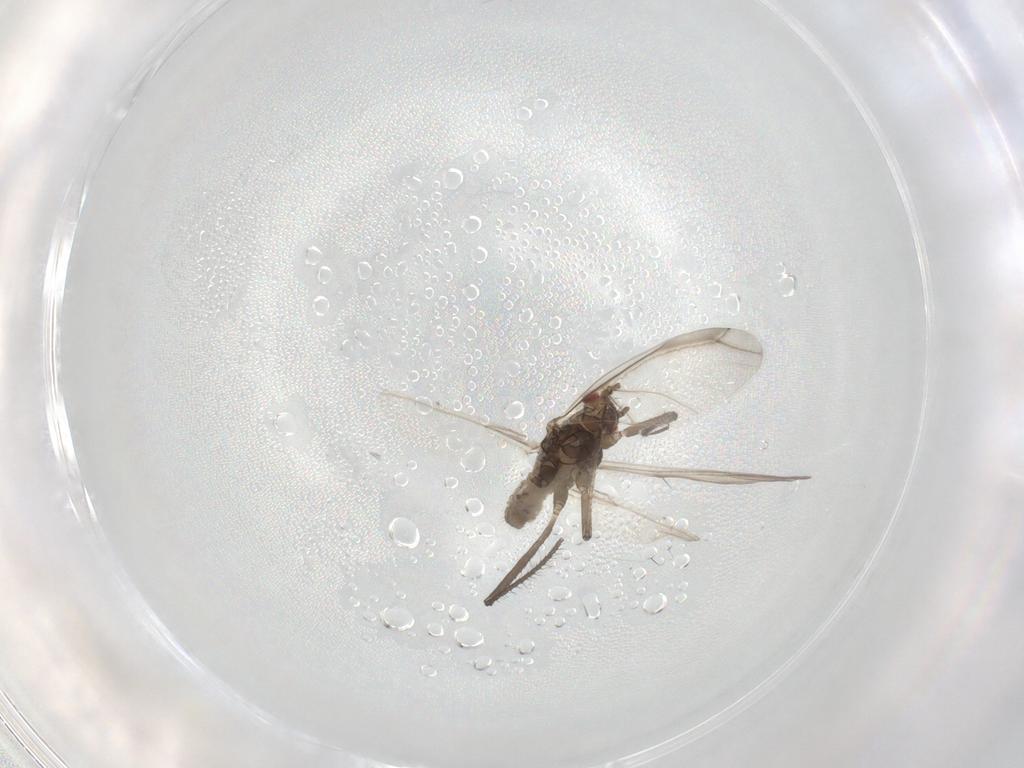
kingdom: Animalia
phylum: Arthropoda
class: Insecta
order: Hemiptera
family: Aphididae
